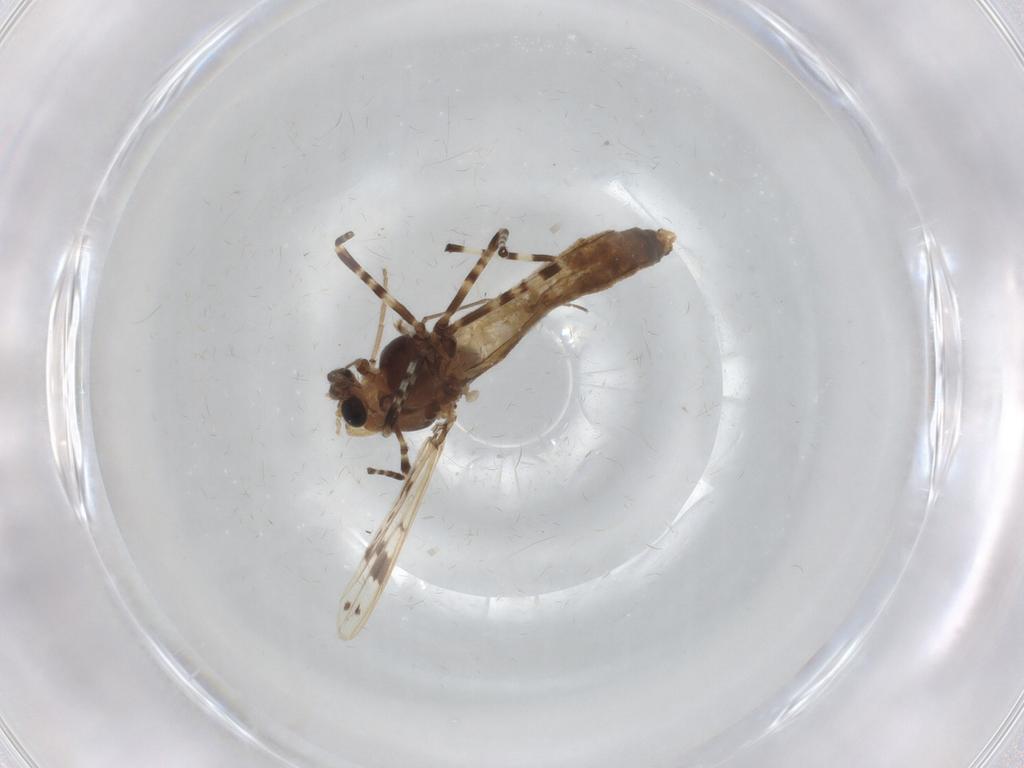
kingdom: Animalia
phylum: Arthropoda
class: Insecta
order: Diptera
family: Chironomidae
